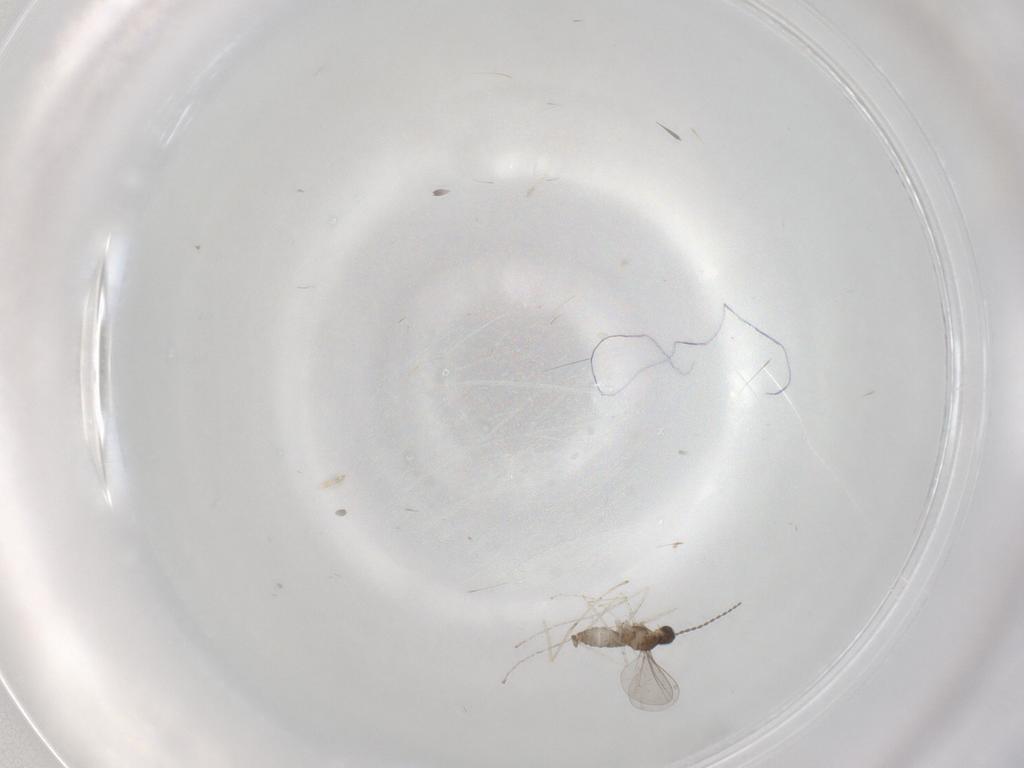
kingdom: Animalia
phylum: Arthropoda
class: Insecta
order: Diptera
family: Cecidomyiidae
